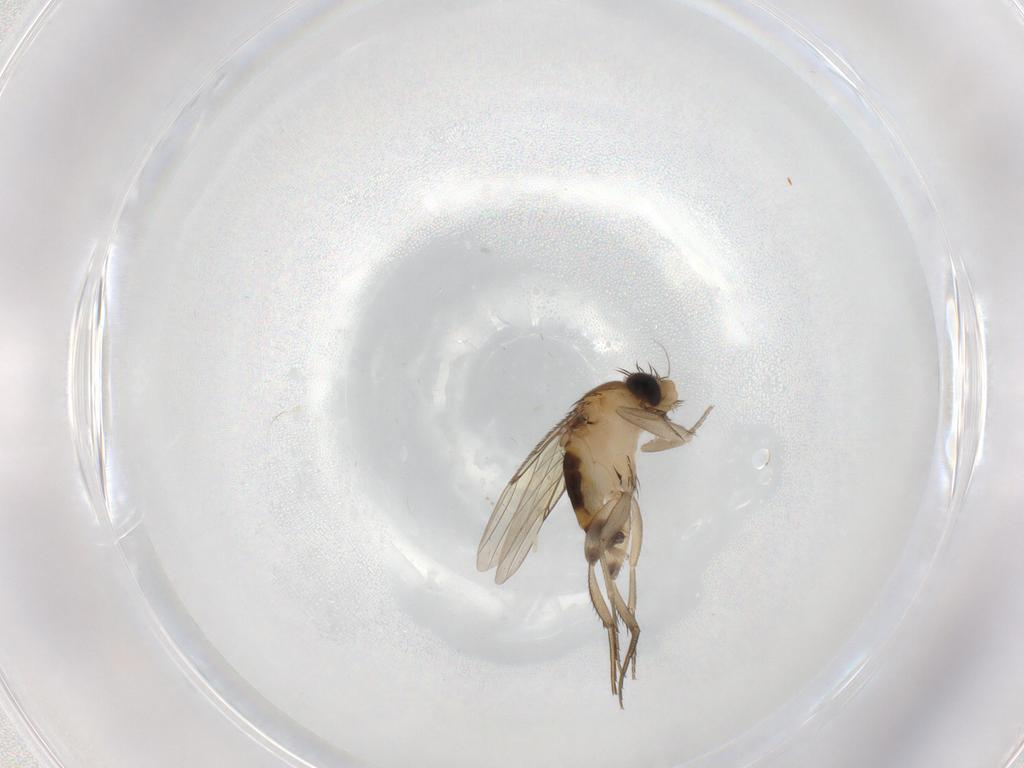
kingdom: Animalia
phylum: Arthropoda
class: Insecta
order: Diptera
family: Phoridae
